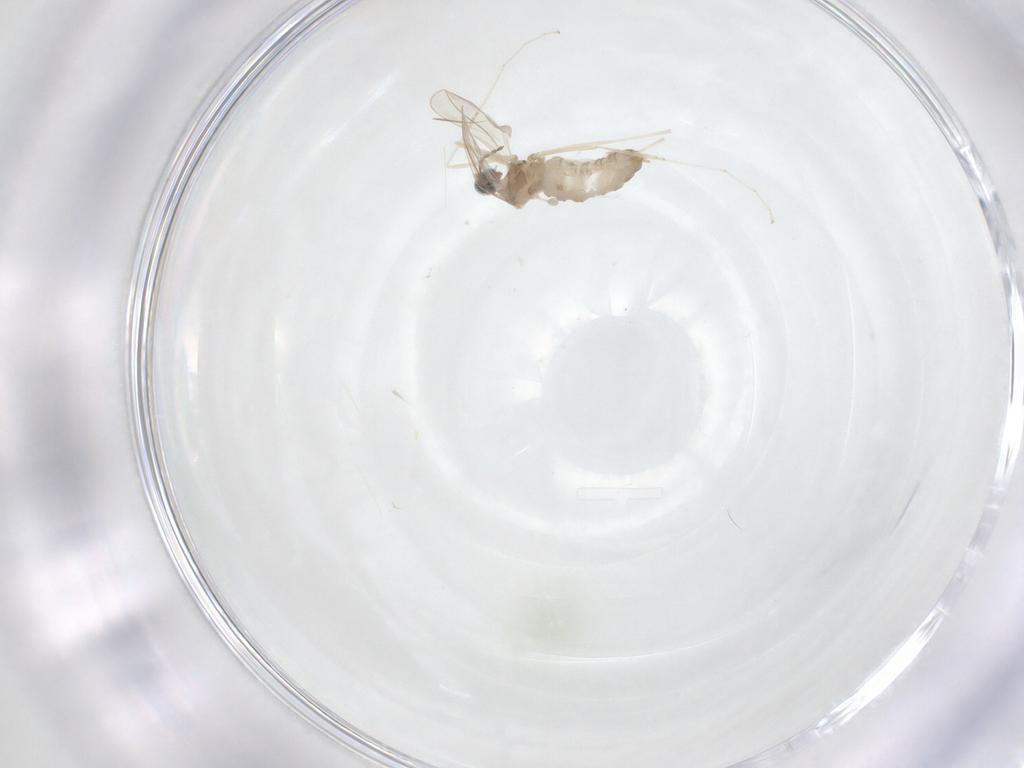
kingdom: Animalia
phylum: Arthropoda
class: Insecta
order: Diptera
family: Cecidomyiidae
